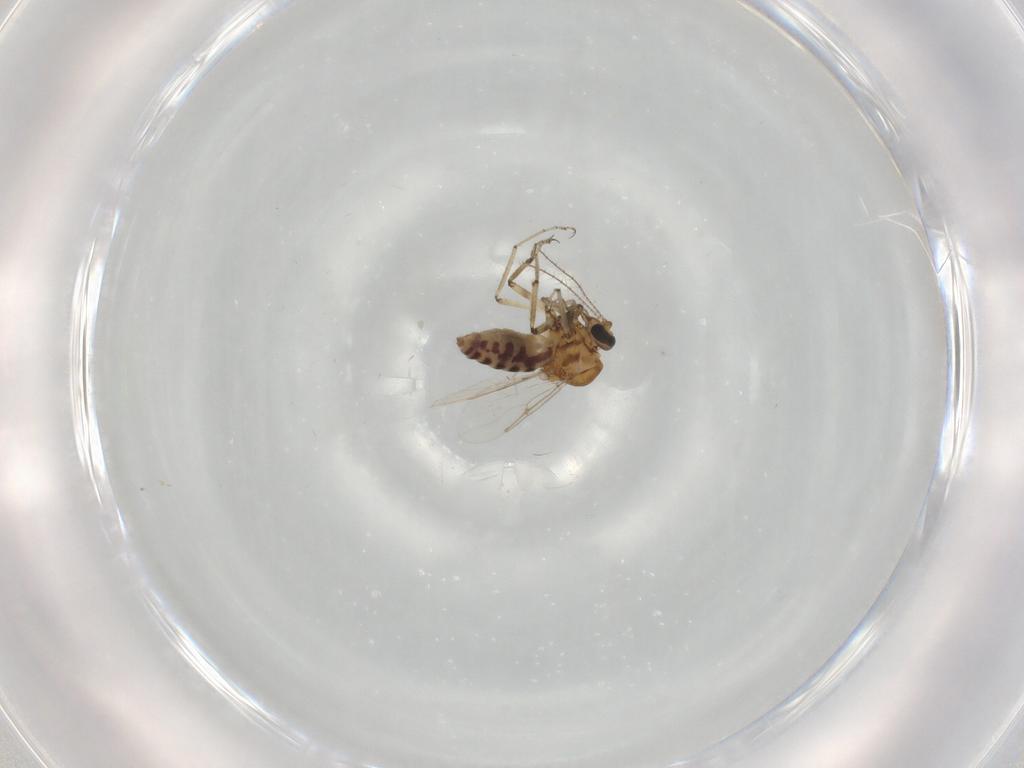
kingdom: Animalia
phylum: Arthropoda
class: Insecta
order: Diptera
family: Ceratopogonidae
